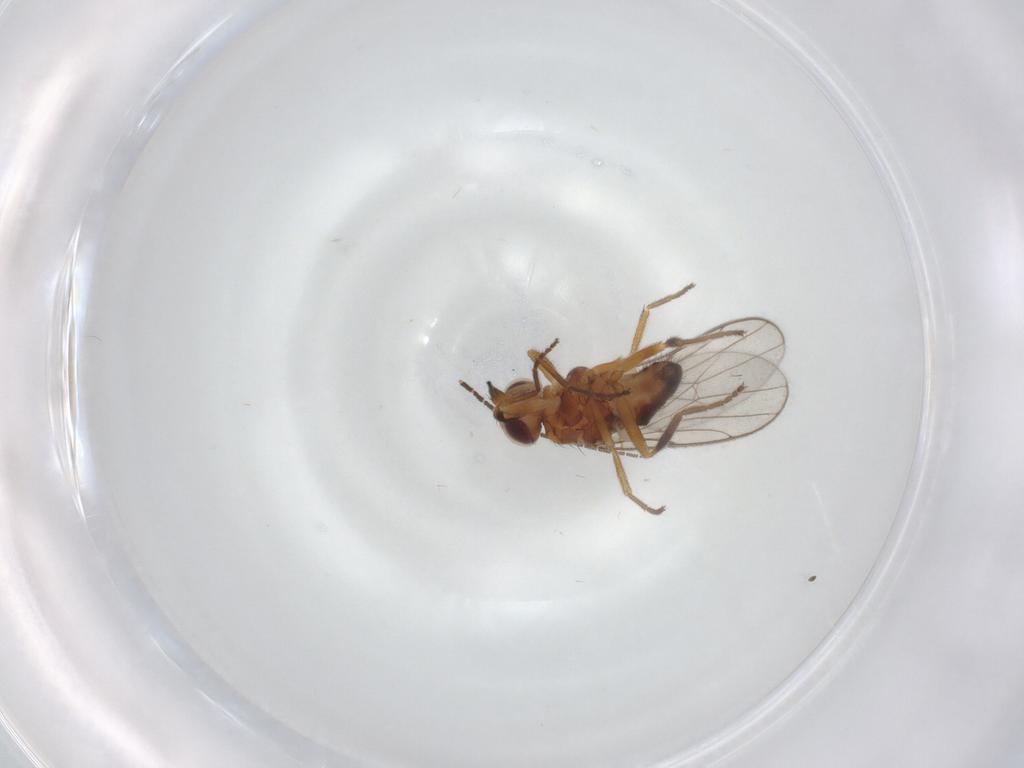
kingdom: Animalia
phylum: Arthropoda
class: Insecta
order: Diptera
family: Chloropidae
